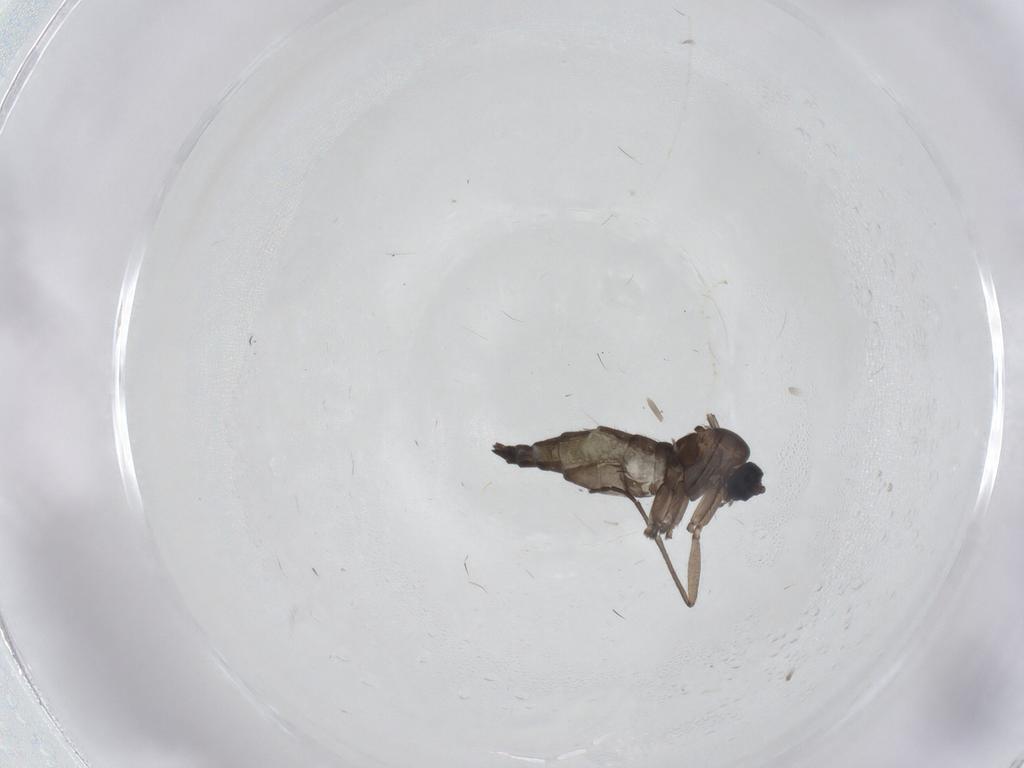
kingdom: Animalia
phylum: Arthropoda
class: Insecta
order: Diptera
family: Sciaridae
